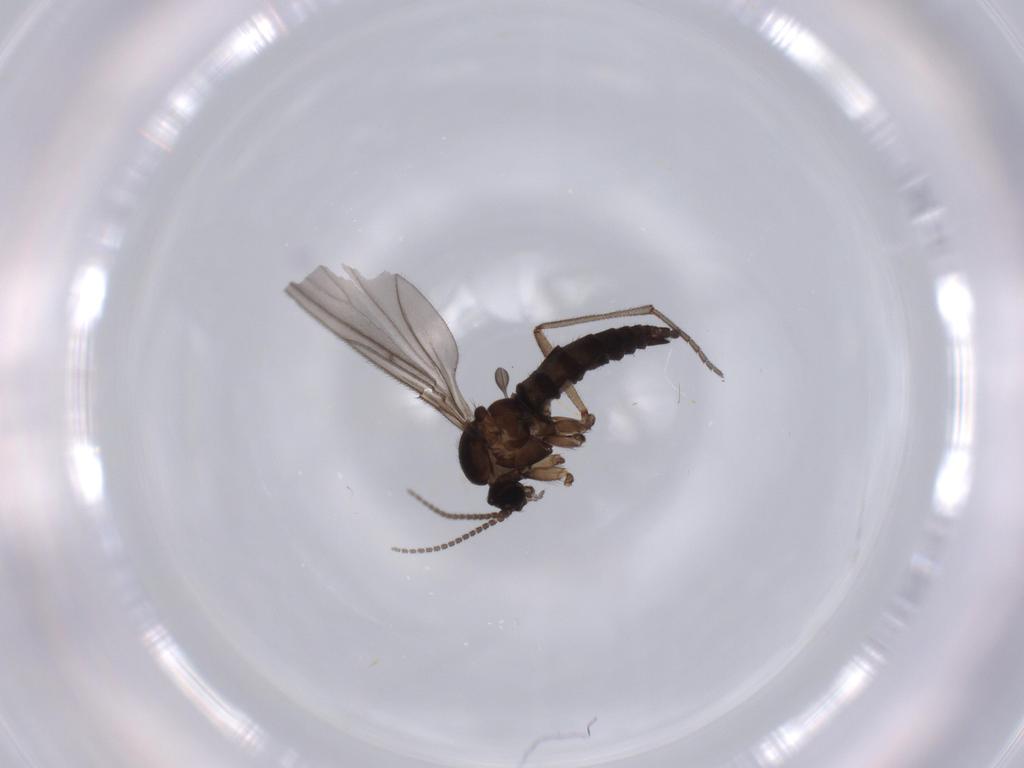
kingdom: Animalia
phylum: Arthropoda
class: Insecta
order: Diptera
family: Sciaridae
